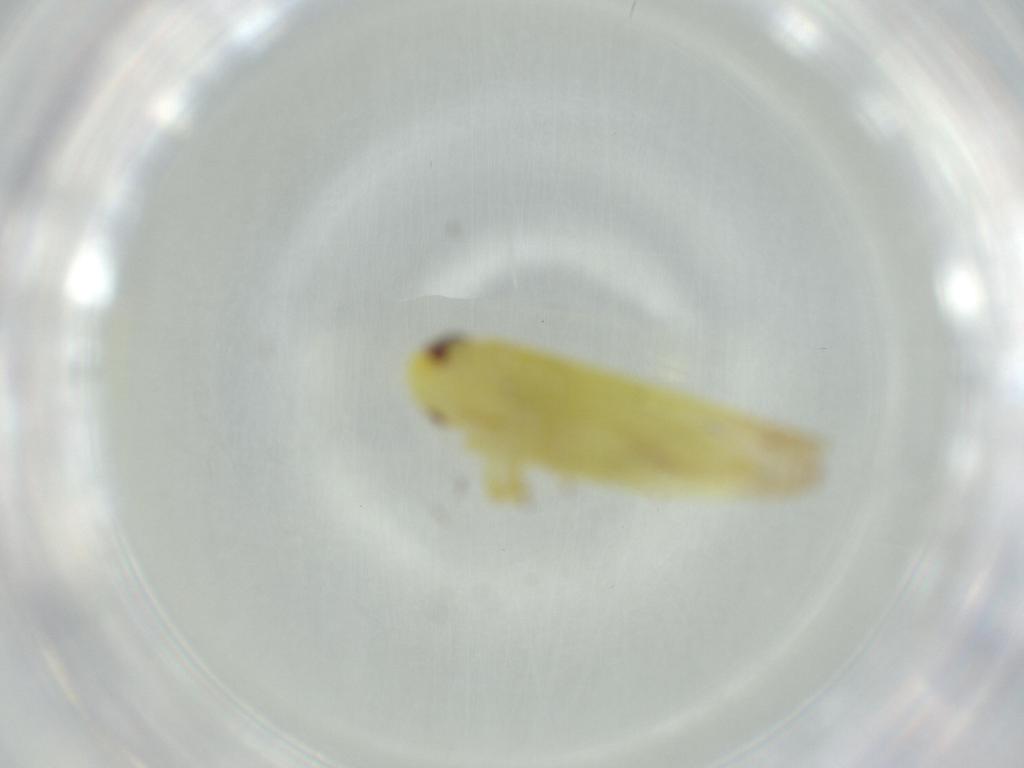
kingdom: Animalia
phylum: Arthropoda
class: Insecta
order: Hemiptera
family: Cicadellidae
